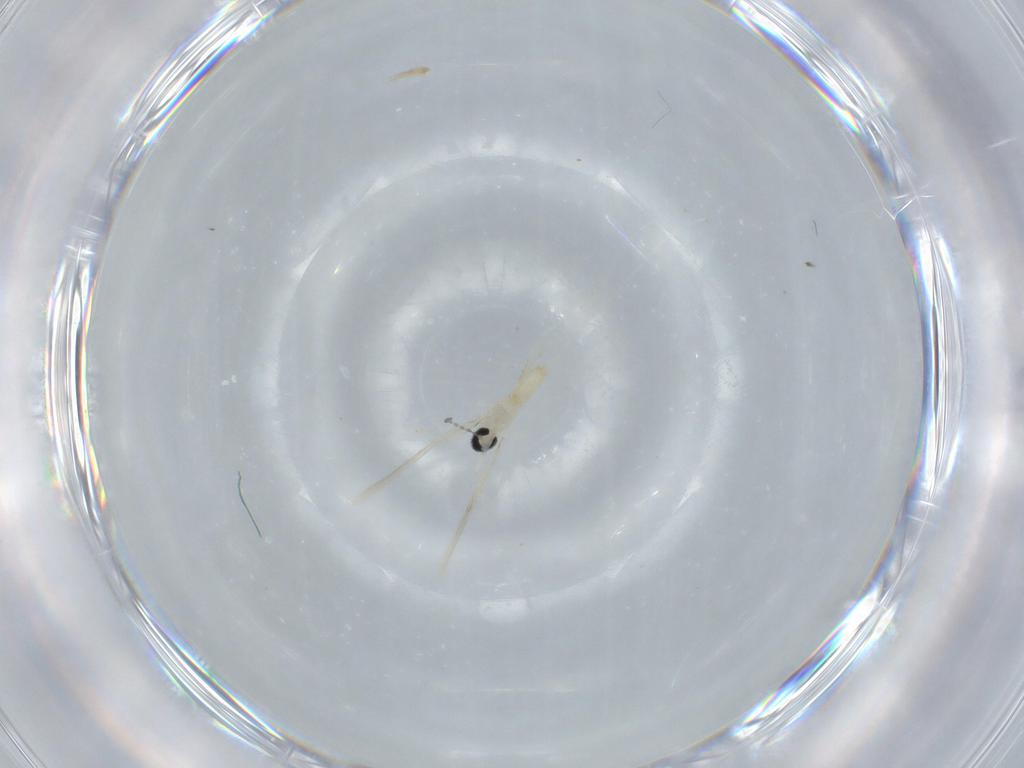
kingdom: Animalia
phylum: Arthropoda
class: Insecta
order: Diptera
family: Cecidomyiidae
